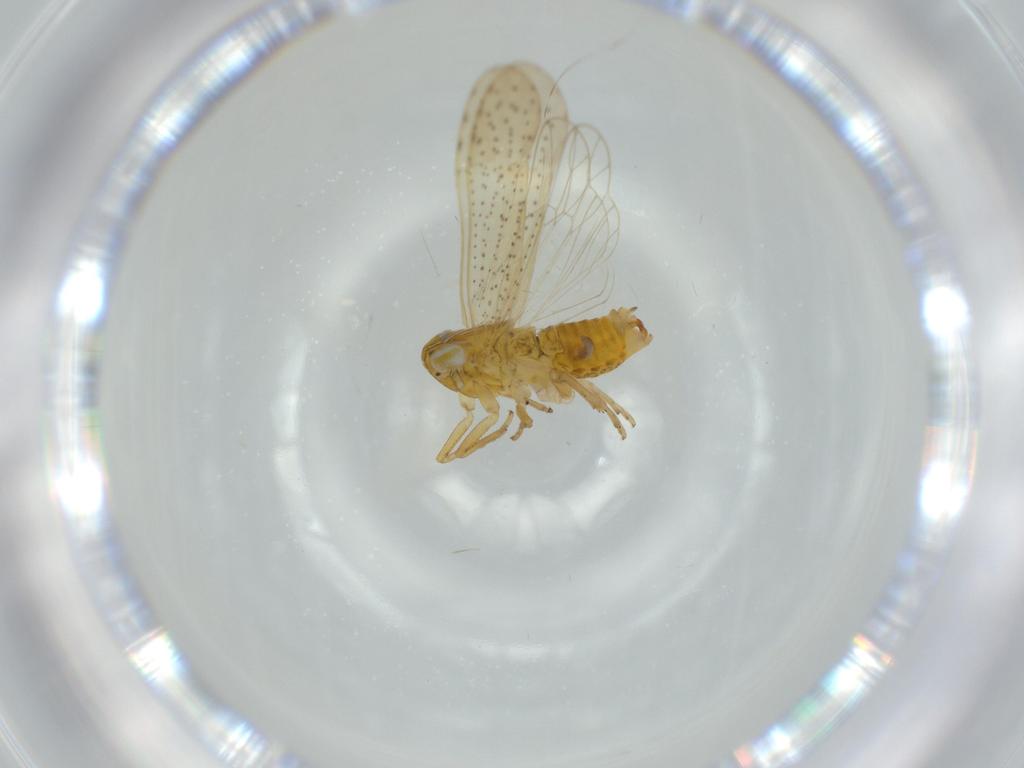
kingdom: Animalia
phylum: Arthropoda
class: Insecta
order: Hemiptera
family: Delphacidae
